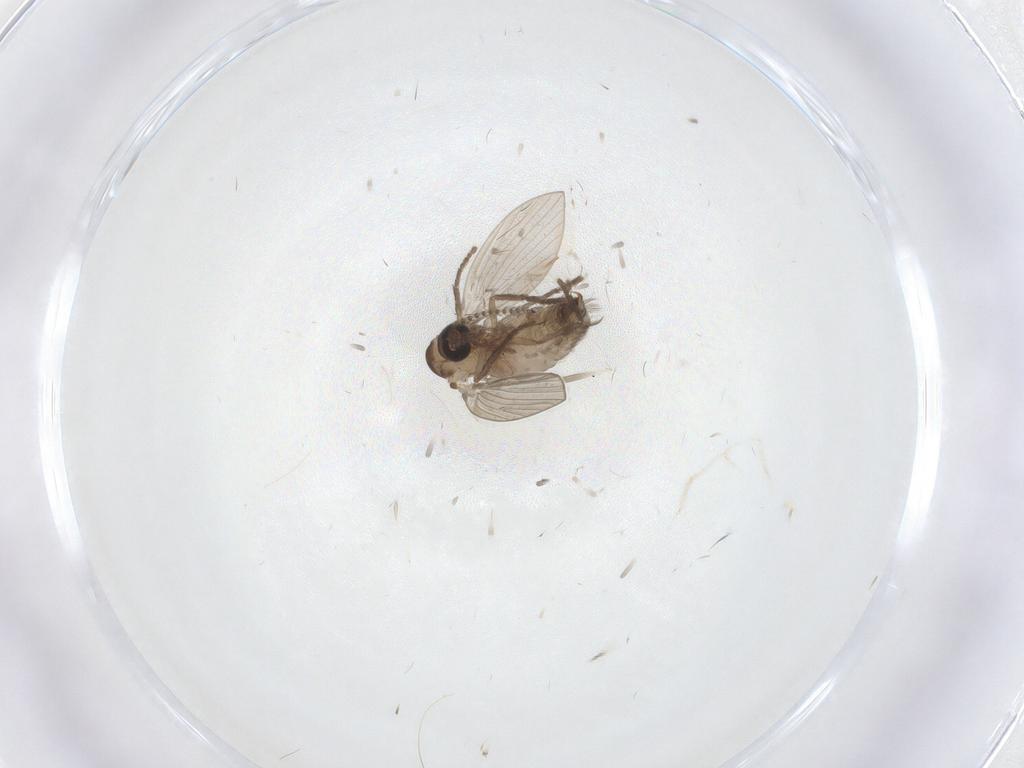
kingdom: Animalia
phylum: Arthropoda
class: Insecta
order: Diptera
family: Psychodidae
